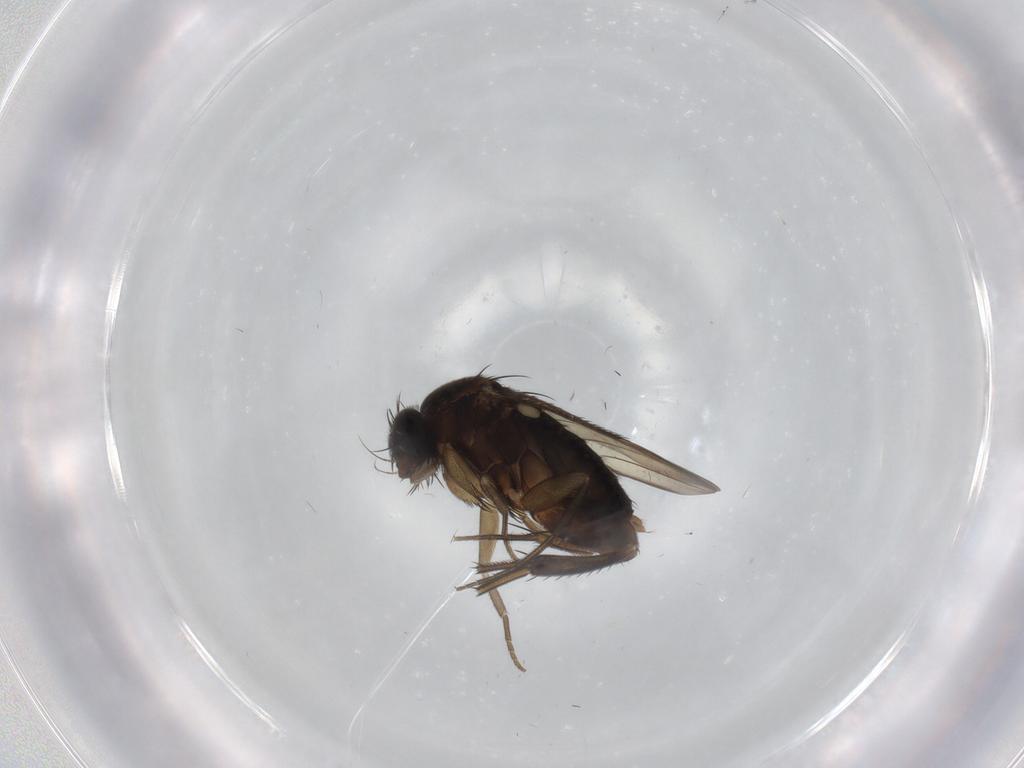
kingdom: Animalia
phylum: Arthropoda
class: Insecta
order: Diptera
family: Phoridae
